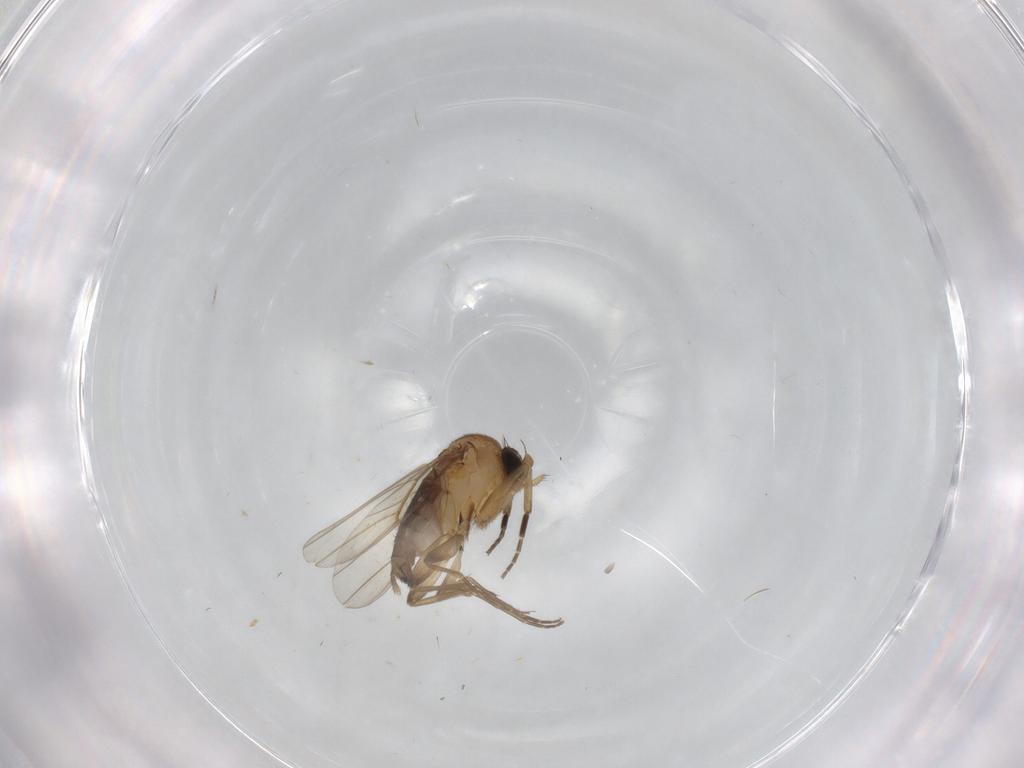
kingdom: Animalia
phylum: Arthropoda
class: Insecta
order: Diptera
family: Phoridae
